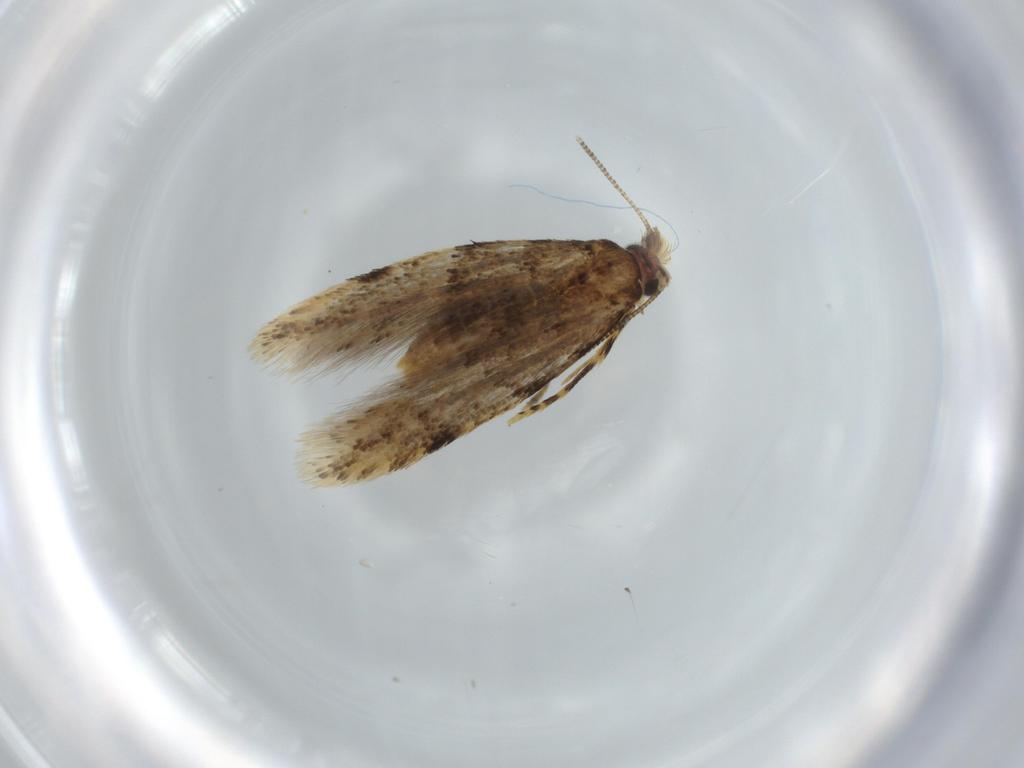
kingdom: Animalia
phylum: Arthropoda
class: Insecta
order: Lepidoptera
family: Tineidae
